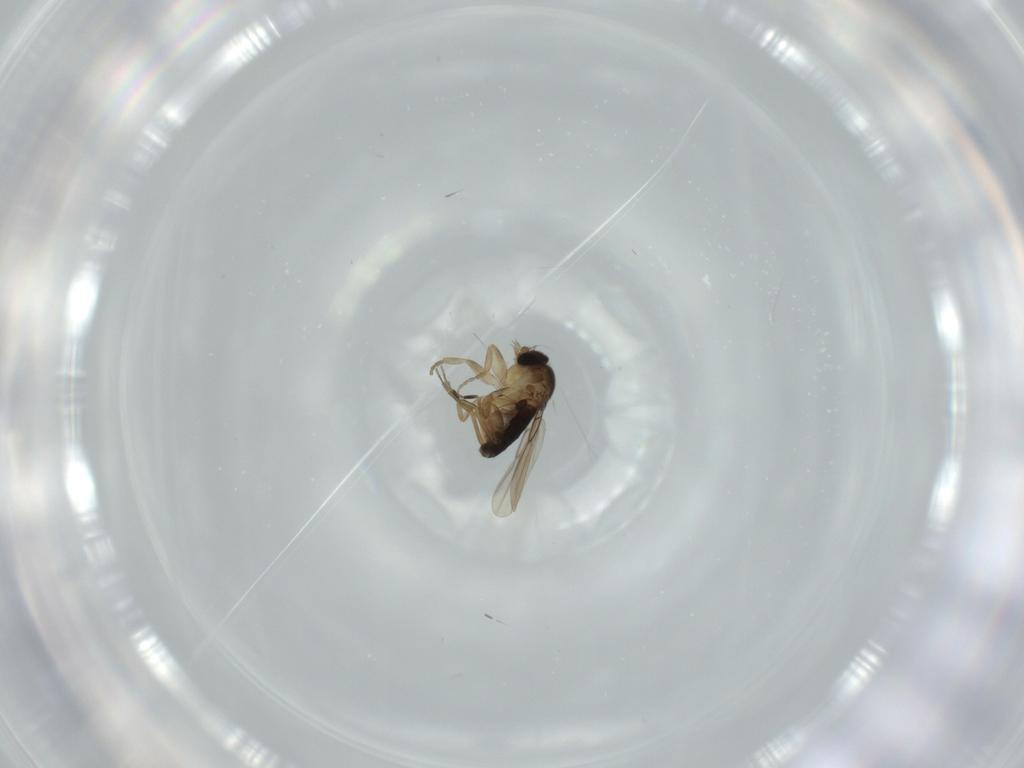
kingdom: Animalia
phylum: Arthropoda
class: Insecta
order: Diptera
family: Phoridae
